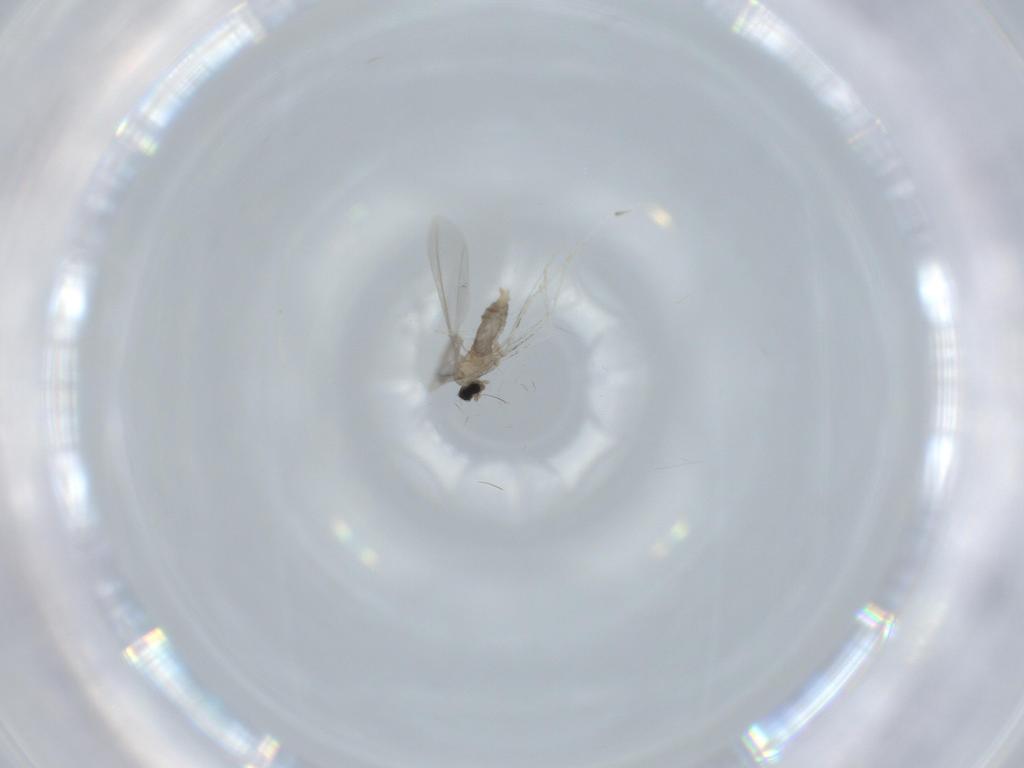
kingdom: Animalia
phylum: Arthropoda
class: Insecta
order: Diptera
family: Cecidomyiidae
